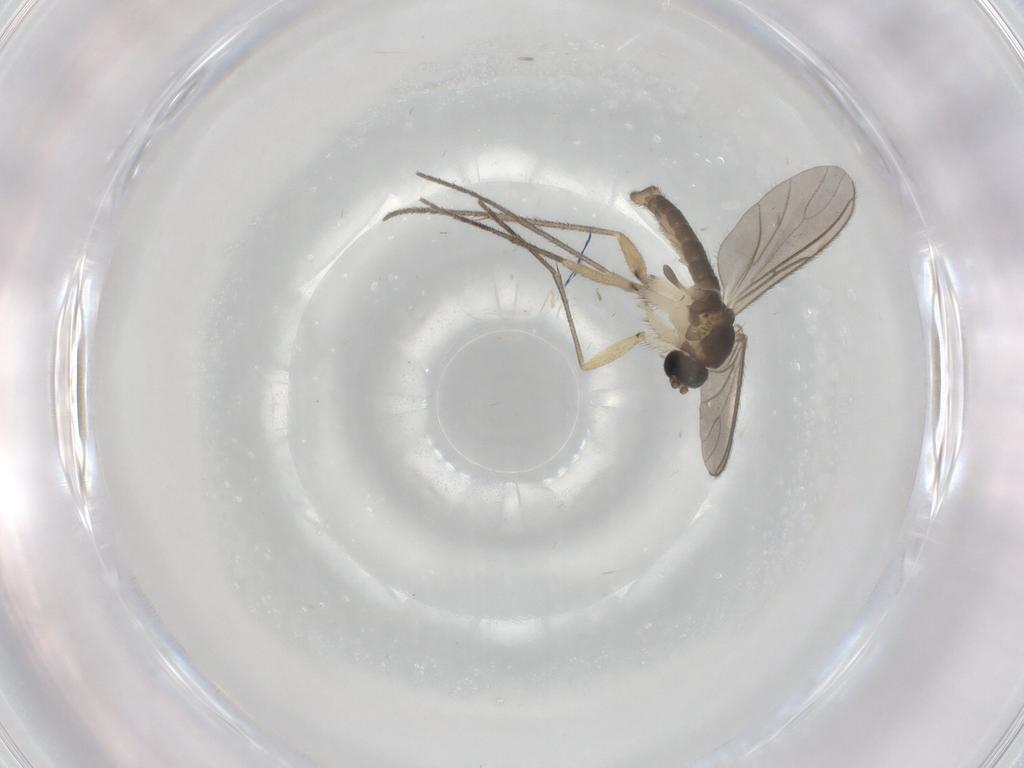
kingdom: Animalia
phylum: Arthropoda
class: Insecta
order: Diptera
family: Sciaridae
